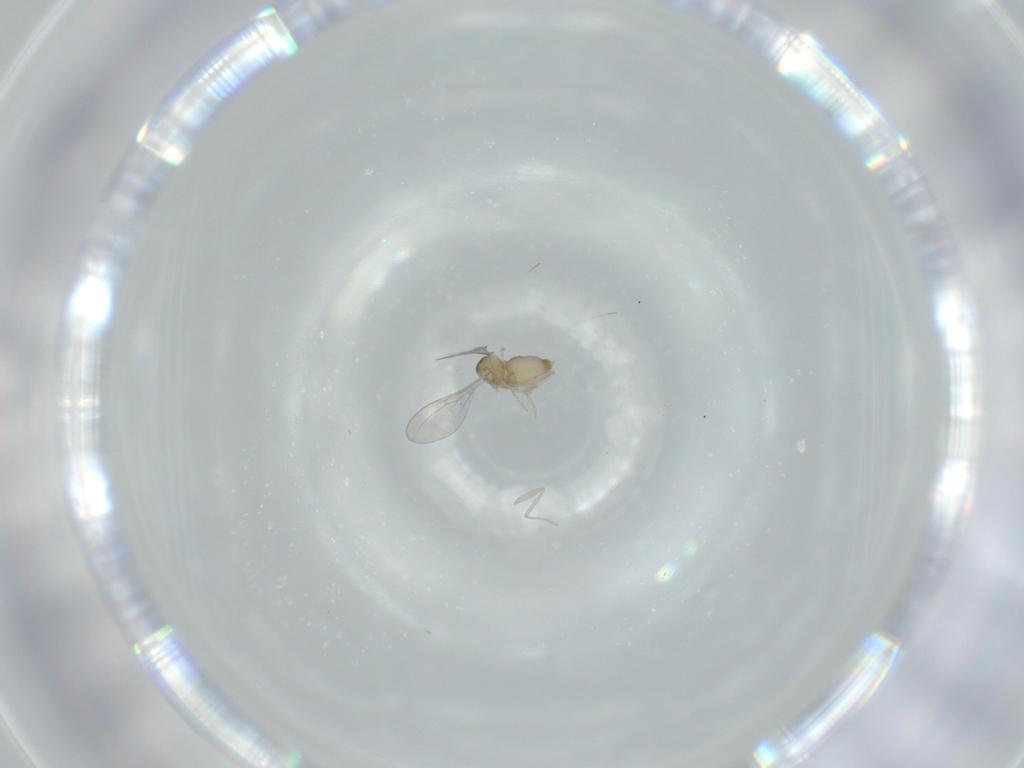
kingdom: Animalia
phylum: Arthropoda
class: Insecta
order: Diptera
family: Cecidomyiidae
